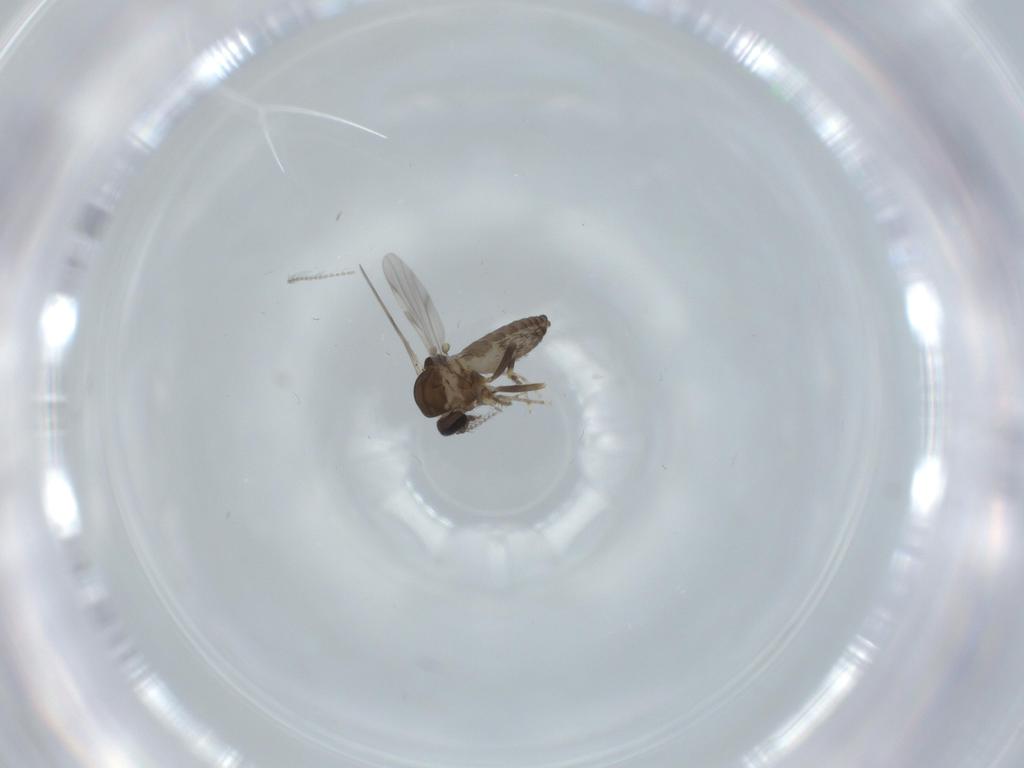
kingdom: Animalia
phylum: Arthropoda
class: Insecta
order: Diptera
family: Ceratopogonidae
